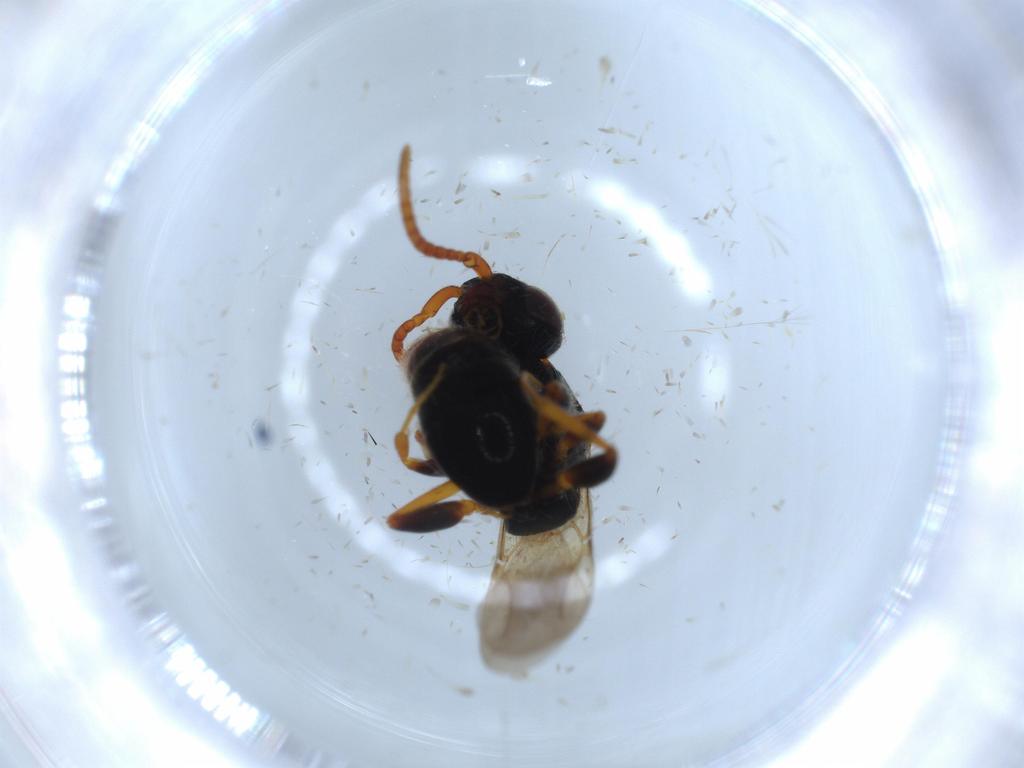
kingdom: Animalia
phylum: Arthropoda
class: Insecta
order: Hymenoptera
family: Bethylidae
